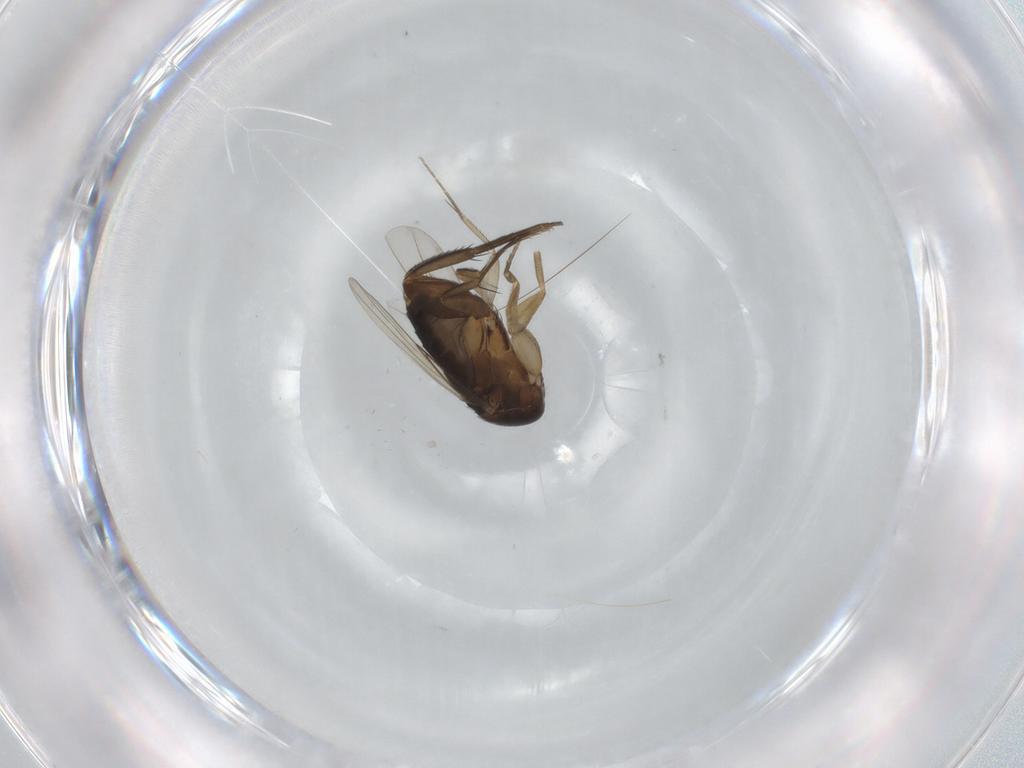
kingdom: Animalia
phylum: Arthropoda
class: Insecta
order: Diptera
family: Phoridae
